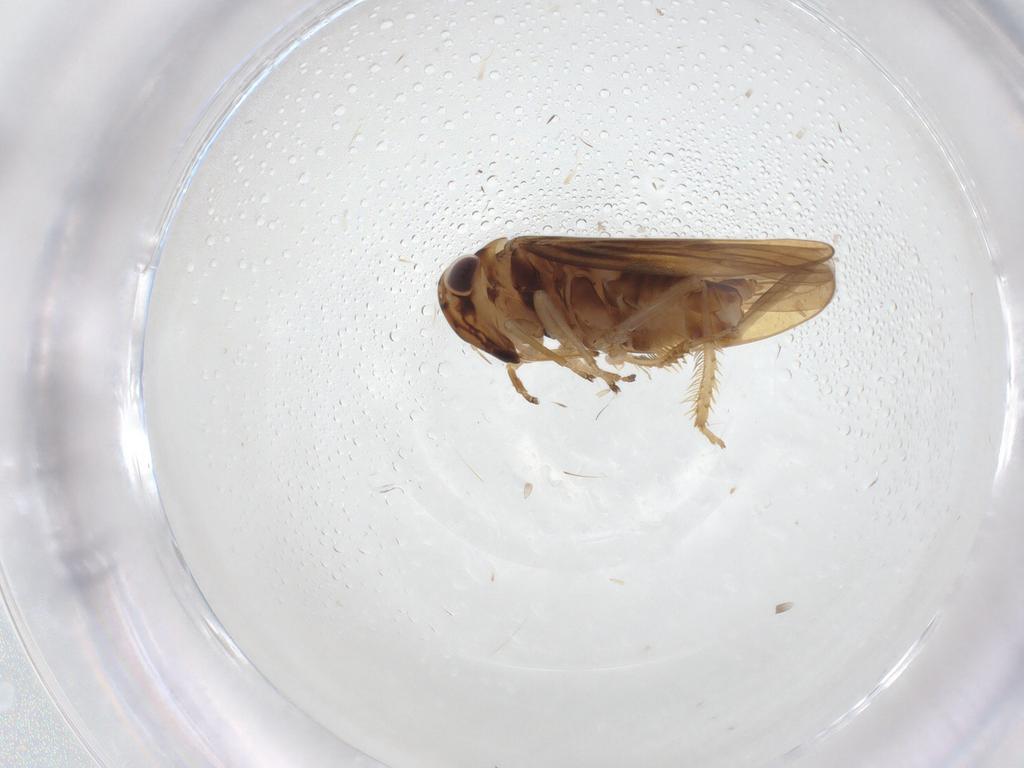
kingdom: Animalia
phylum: Arthropoda
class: Insecta
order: Hemiptera
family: Cicadellidae
